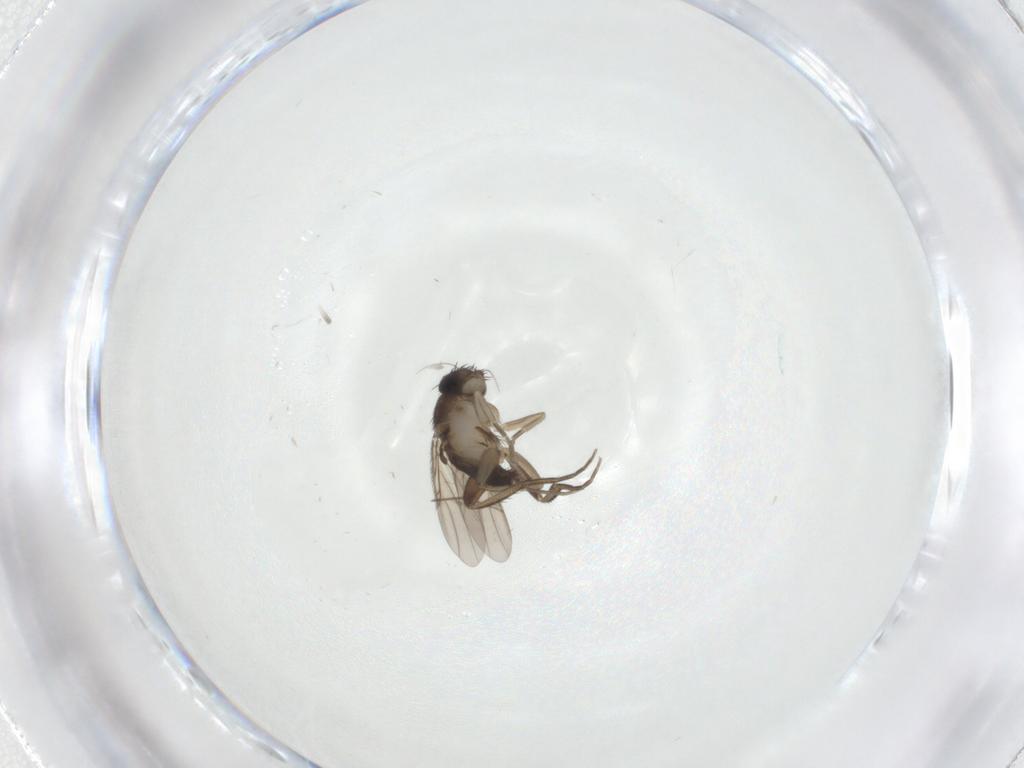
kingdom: Animalia
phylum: Arthropoda
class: Insecta
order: Diptera
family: Chironomidae
